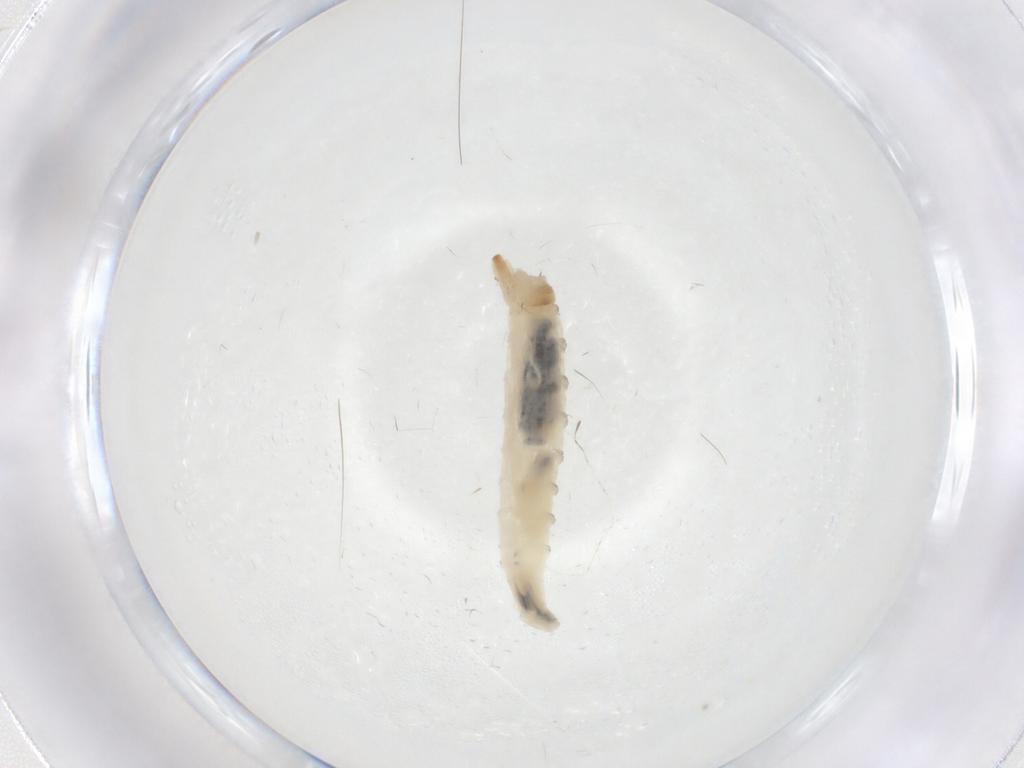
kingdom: Animalia
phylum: Arthropoda
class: Insecta
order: Diptera
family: Drosophilidae
